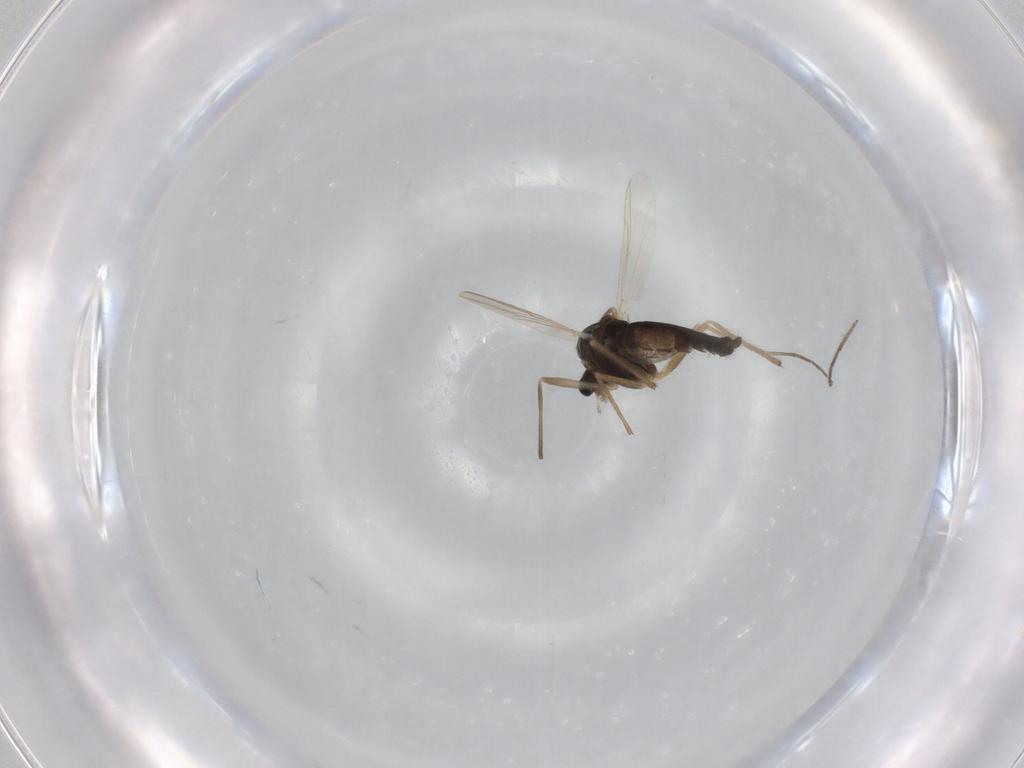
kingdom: Animalia
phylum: Arthropoda
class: Insecta
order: Diptera
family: Chironomidae
